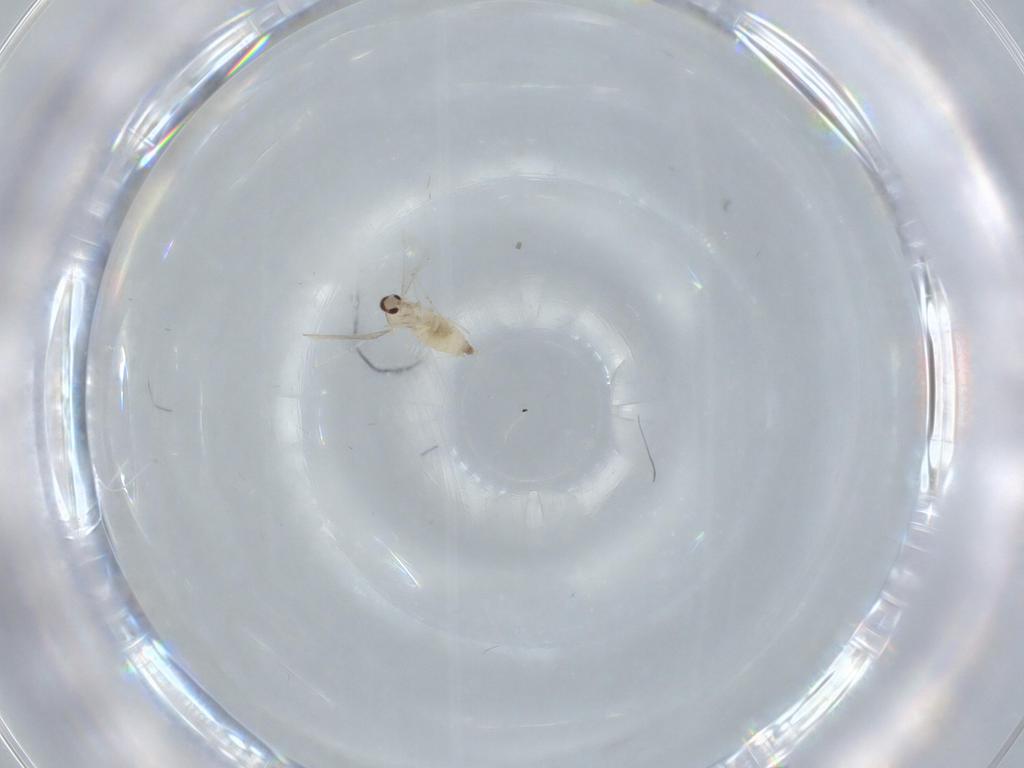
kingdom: Animalia
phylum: Arthropoda
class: Insecta
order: Diptera
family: Cecidomyiidae
